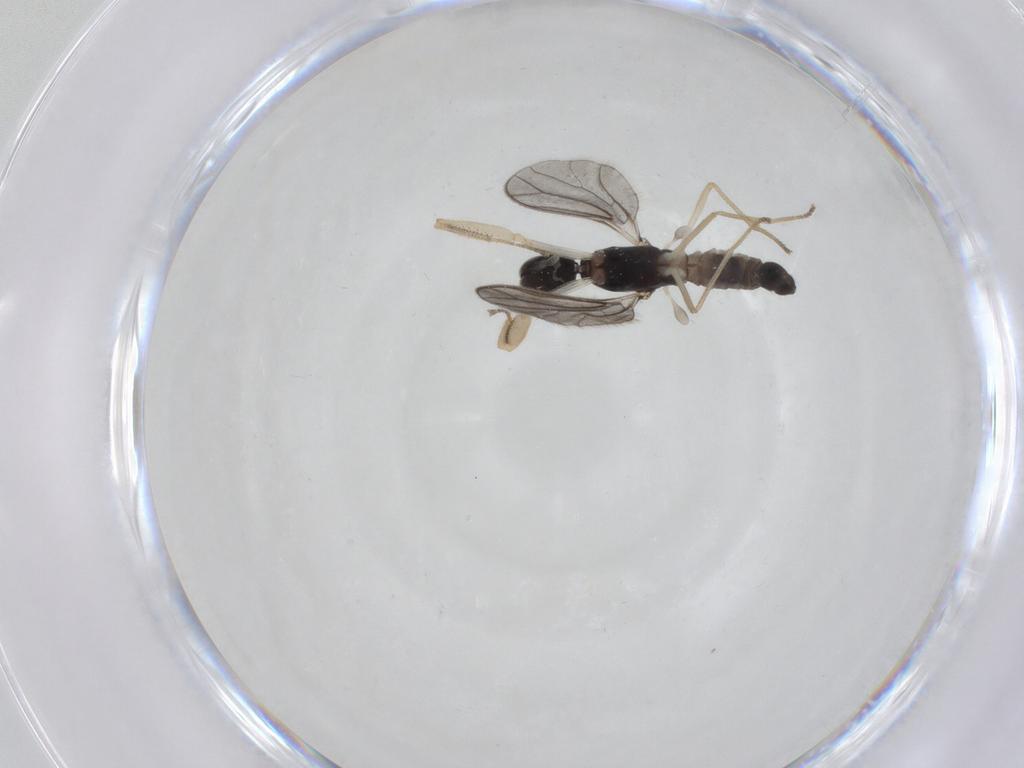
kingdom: Animalia
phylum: Arthropoda
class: Insecta
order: Diptera
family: Empididae
